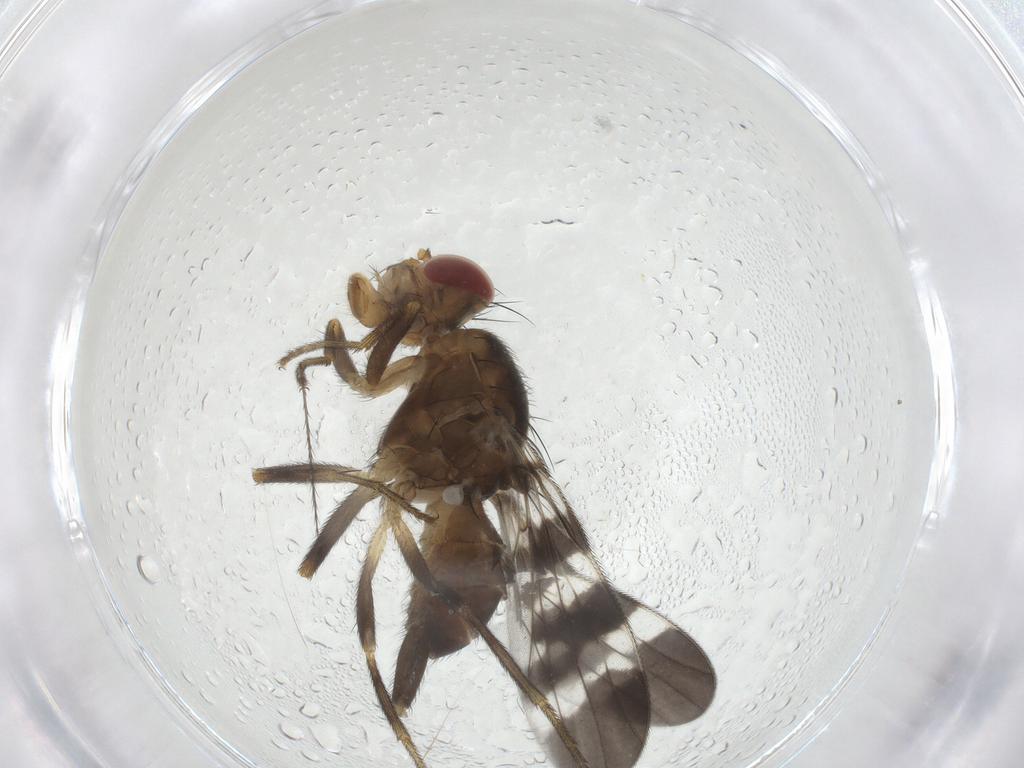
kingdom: Animalia
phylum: Arthropoda
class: Insecta
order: Diptera
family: Tephritidae
